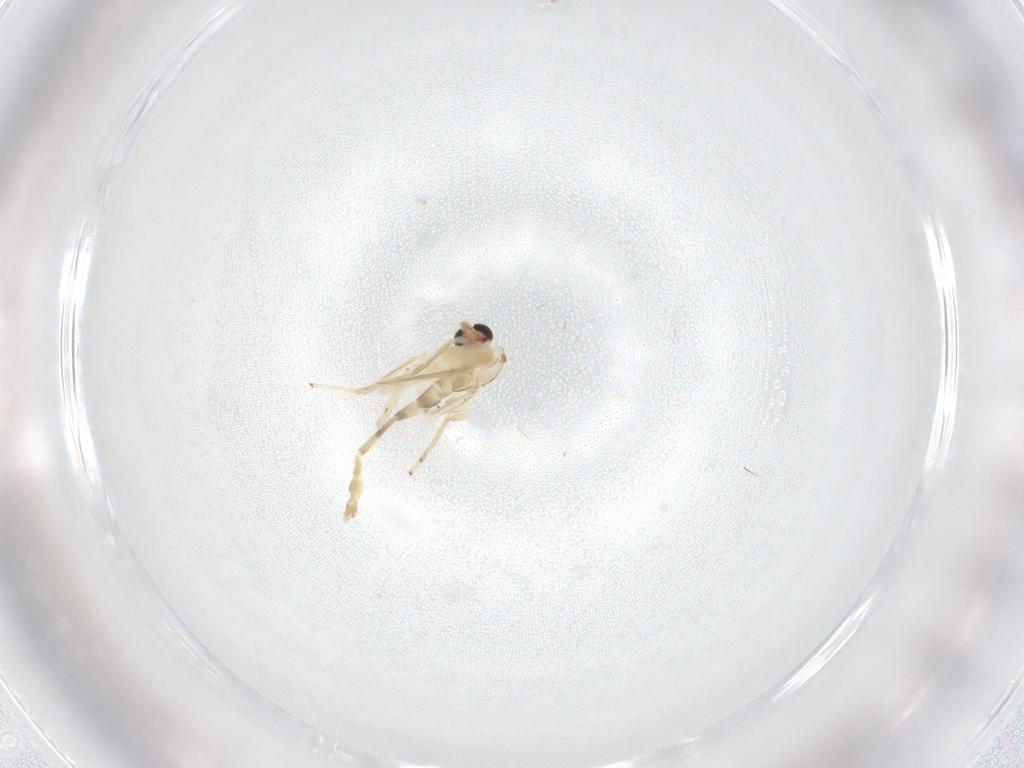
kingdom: Animalia
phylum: Arthropoda
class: Insecta
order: Diptera
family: Chironomidae
